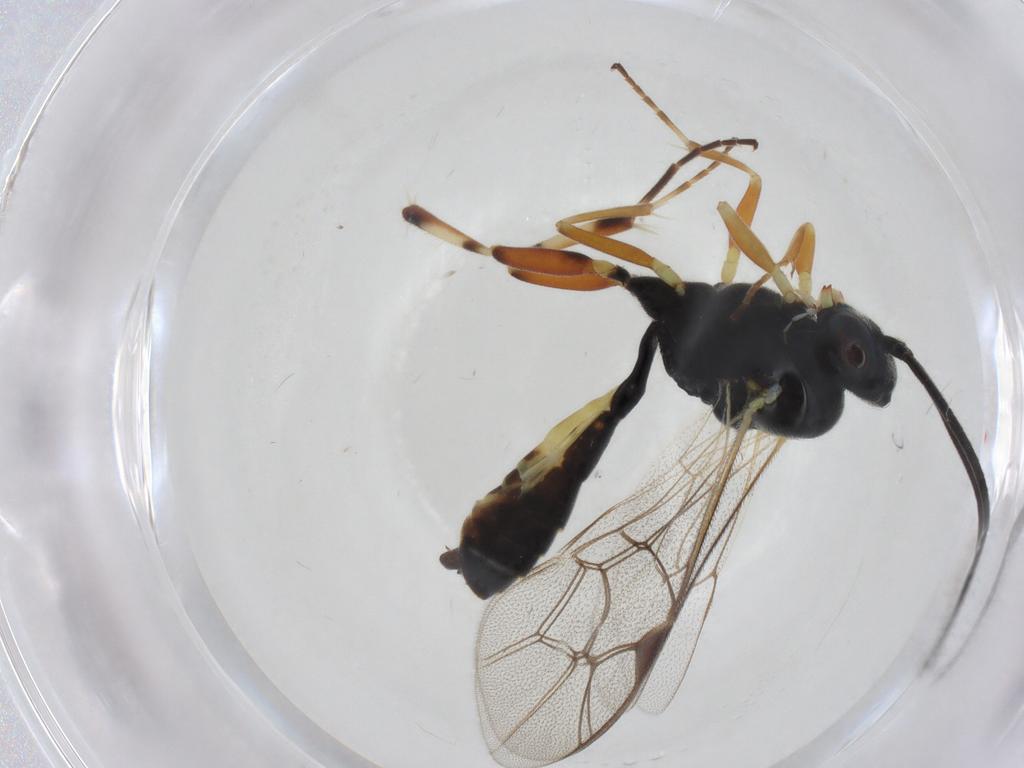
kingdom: Animalia
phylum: Arthropoda
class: Insecta
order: Hymenoptera
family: Ichneumonidae
